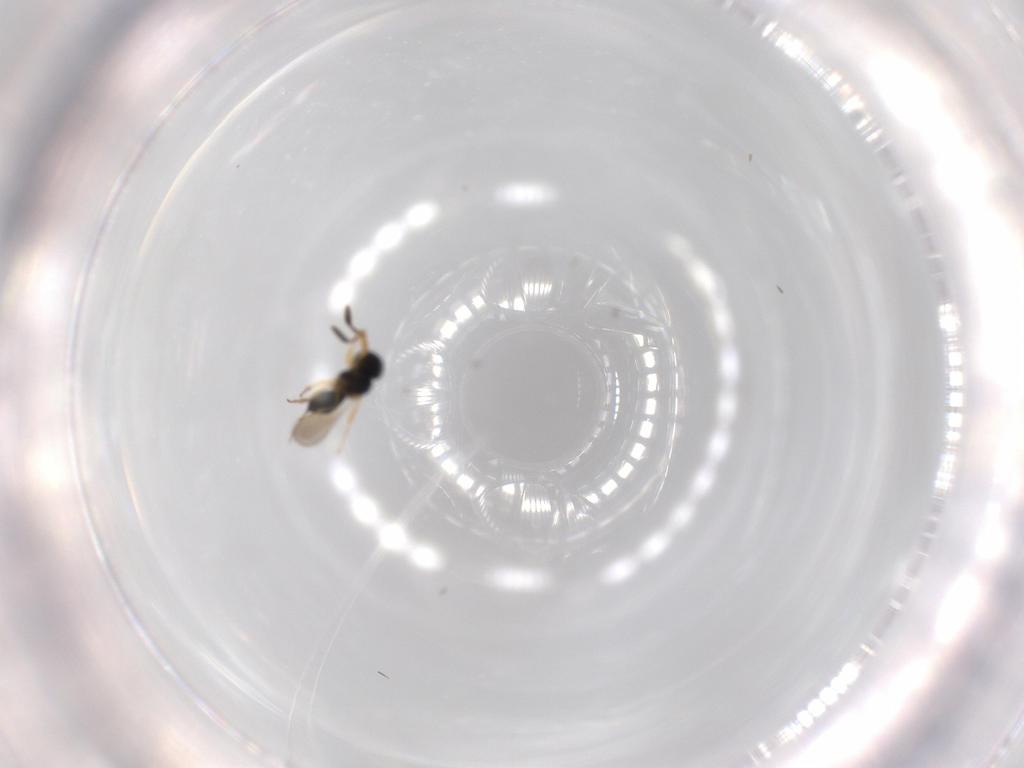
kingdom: Animalia
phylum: Arthropoda
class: Insecta
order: Hymenoptera
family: Scelionidae
